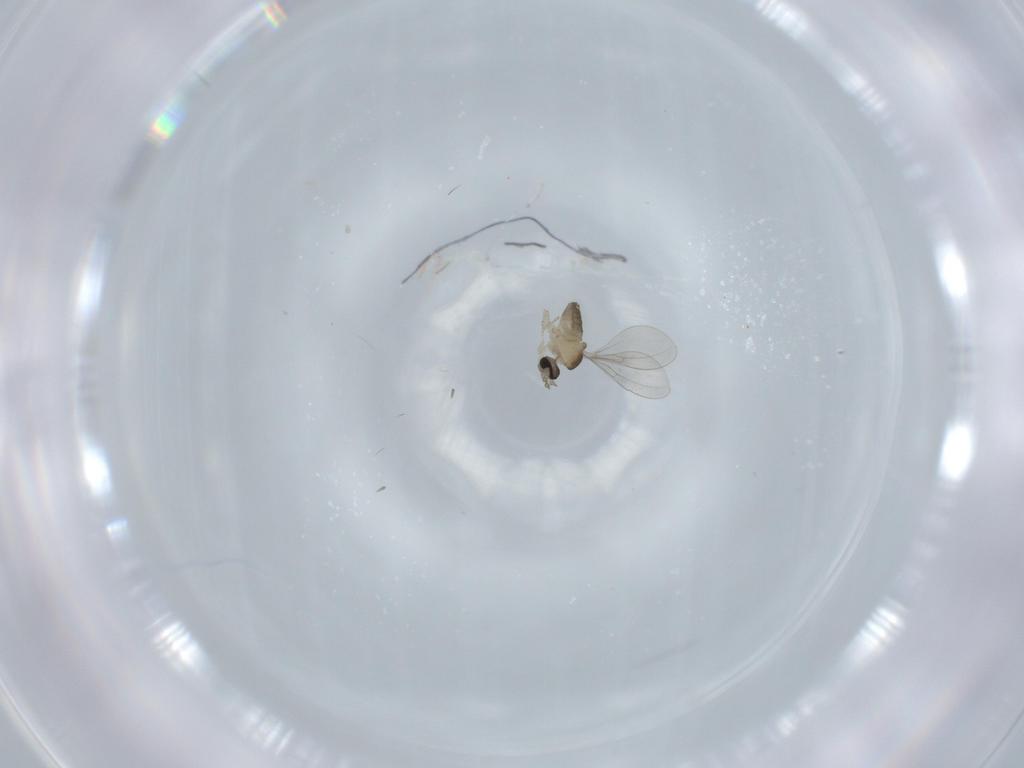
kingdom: Animalia
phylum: Arthropoda
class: Insecta
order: Diptera
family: Cecidomyiidae
